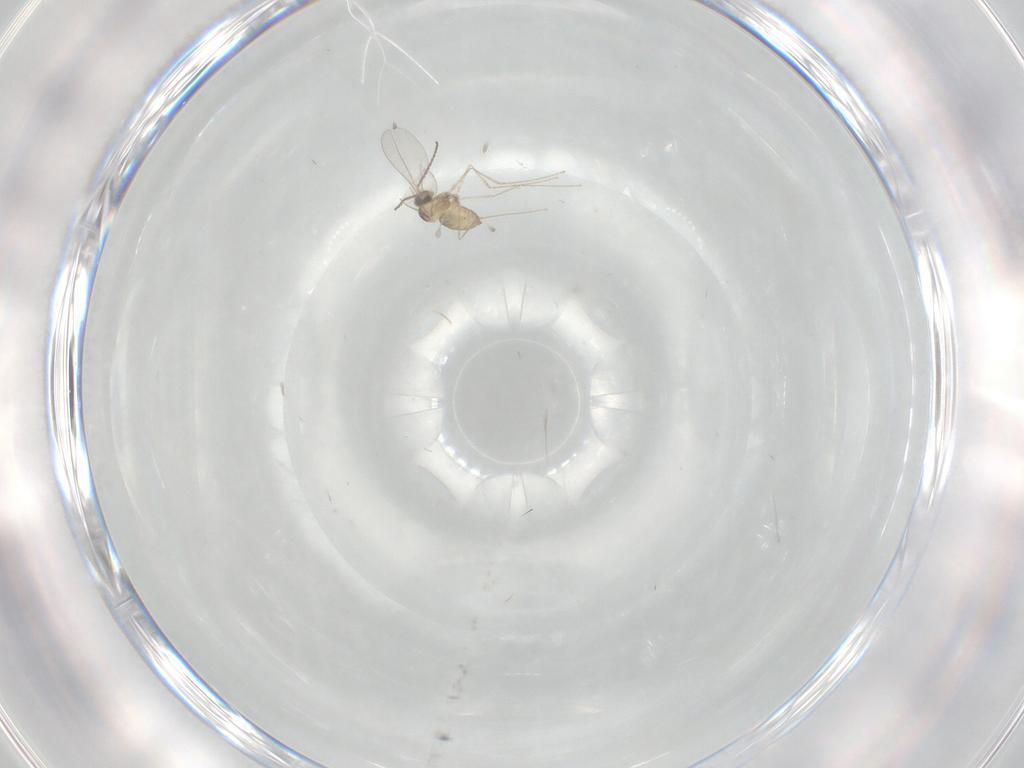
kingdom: Animalia
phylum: Arthropoda
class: Insecta
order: Diptera
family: Cecidomyiidae
